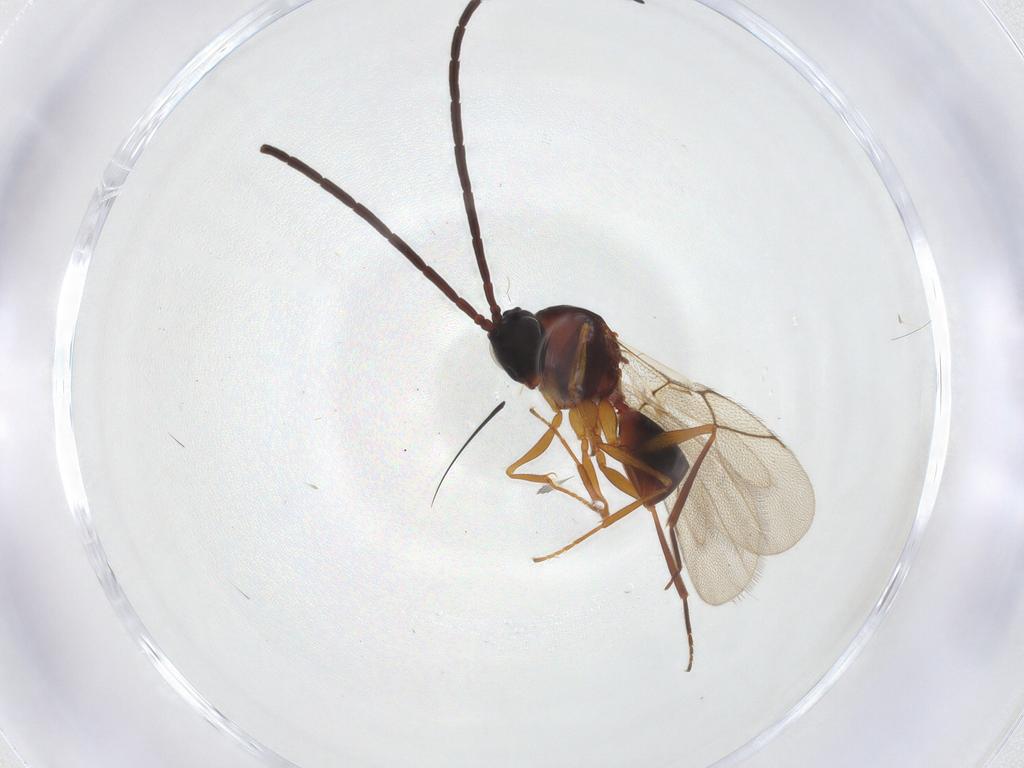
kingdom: Animalia
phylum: Arthropoda
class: Insecta
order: Hymenoptera
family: Figitidae
